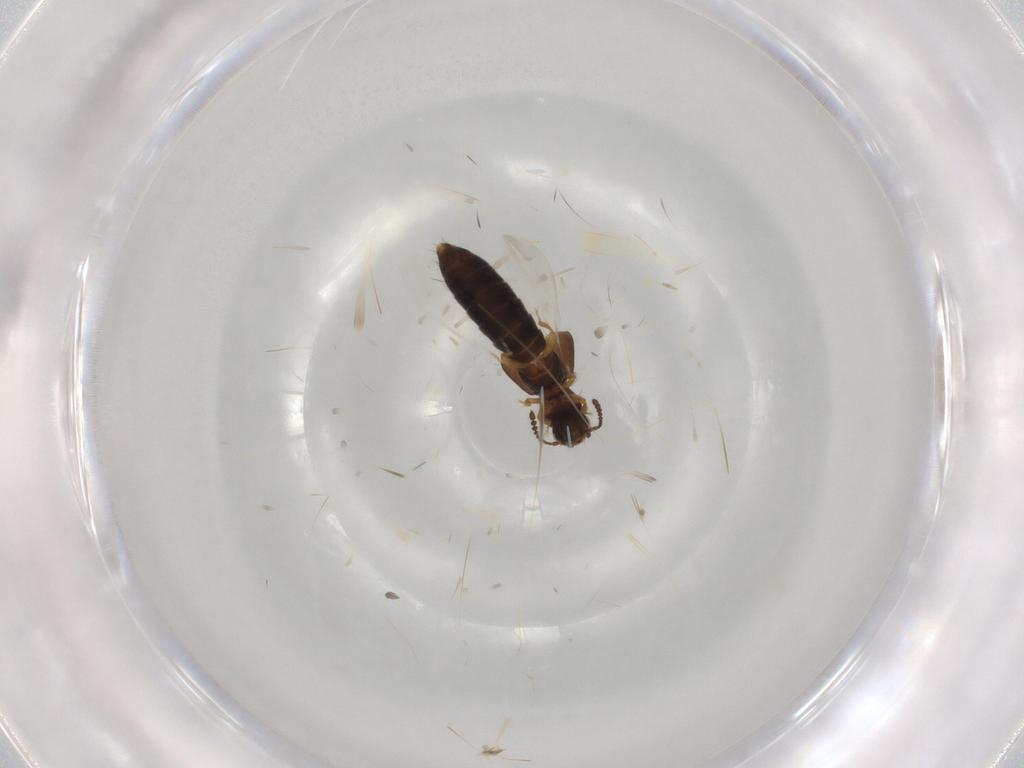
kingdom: Animalia
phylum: Arthropoda
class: Insecta
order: Coleoptera
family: Staphylinidae
